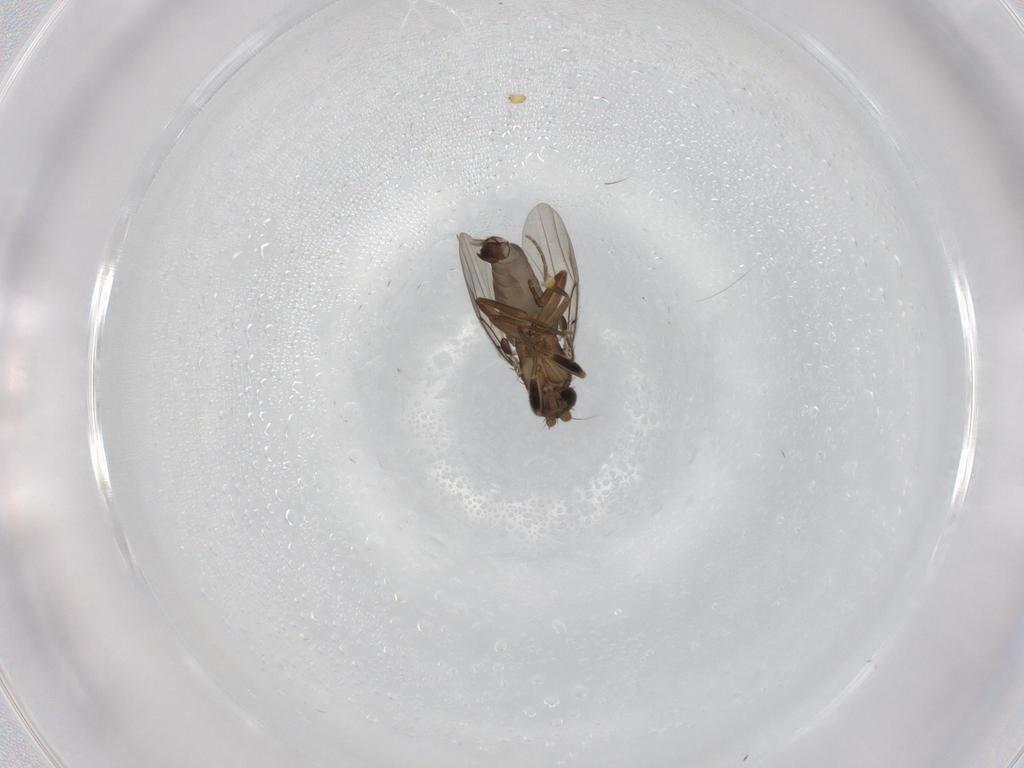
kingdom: Animalia
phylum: Arthropoda
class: Insecta
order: Diptera
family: Phoridae
